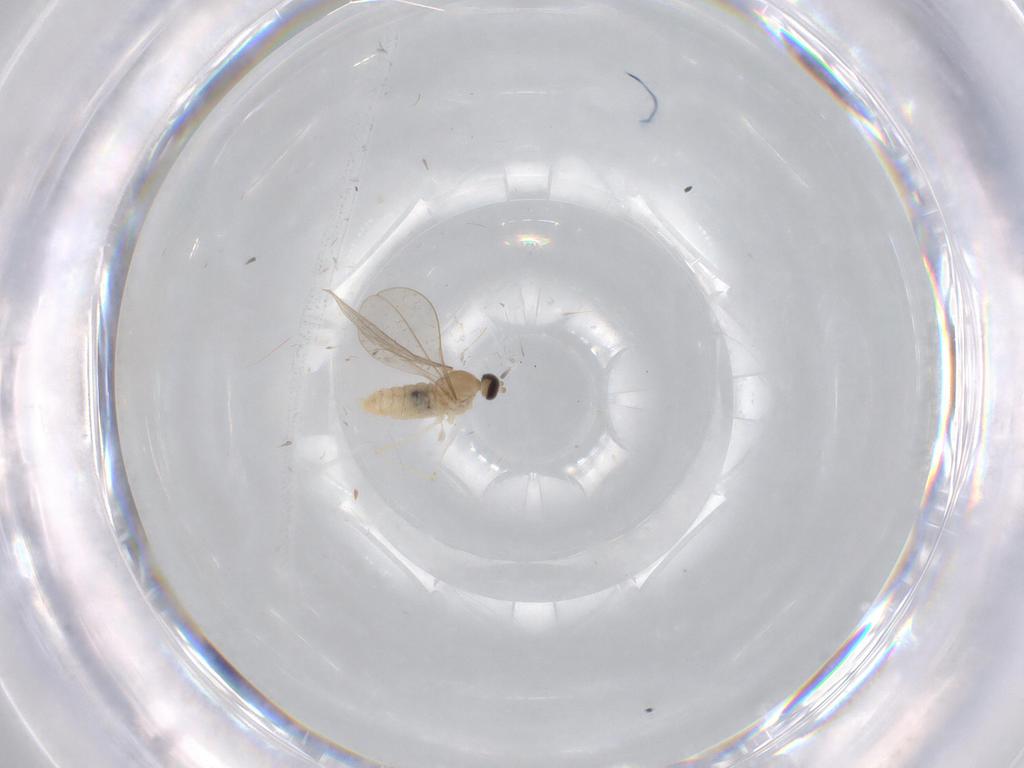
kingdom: Animalia
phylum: Arthropoda
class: Insecta
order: Diptera
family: Cecidomyiidae
